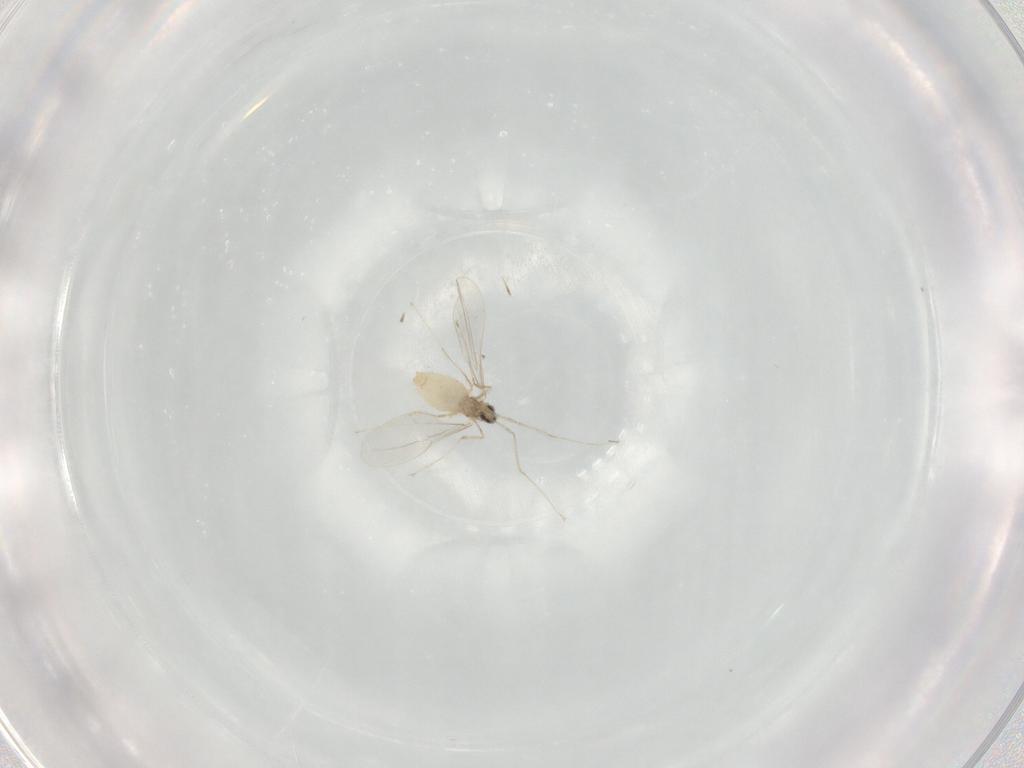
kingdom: Animalia
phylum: Arthropoda
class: Insecta
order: Diptera
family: Cecidomyiidae
